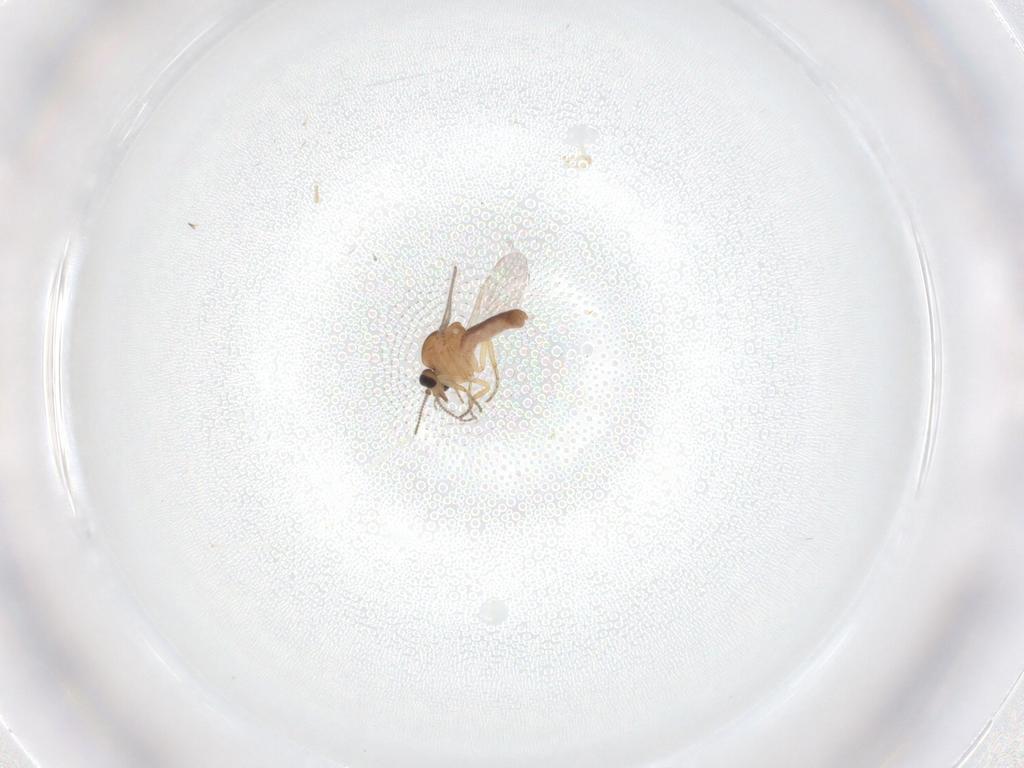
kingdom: Animalia
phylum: Arthropoda
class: Insecta
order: Diptera
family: Ceratopogonidae
